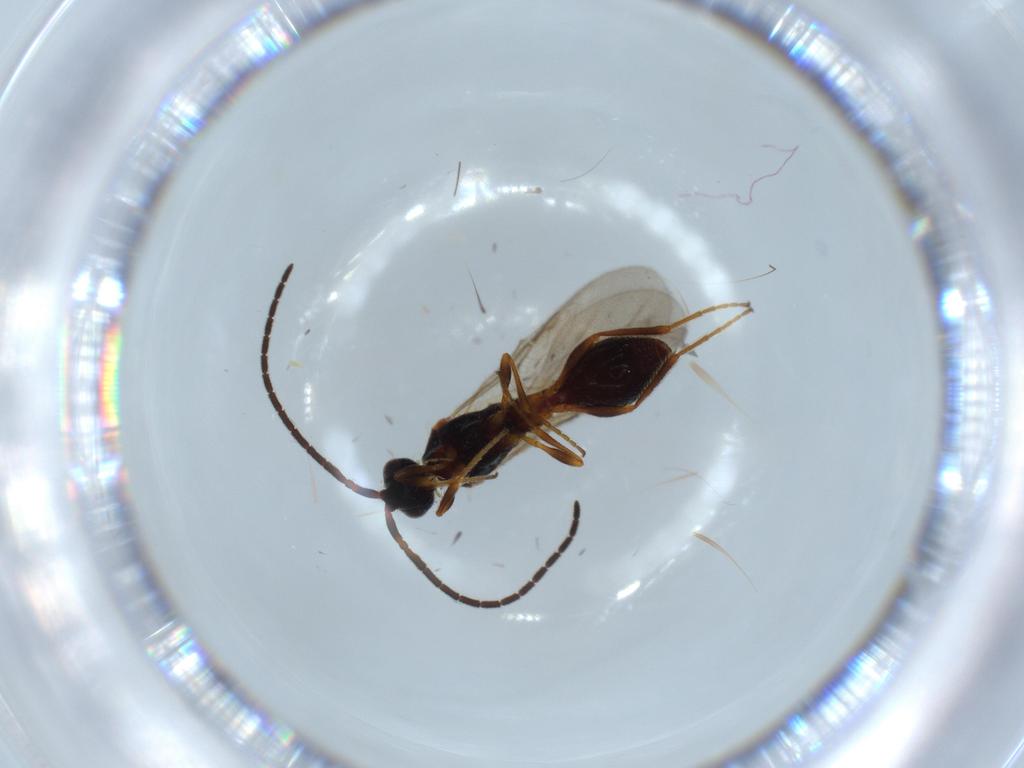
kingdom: Animalia
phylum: Arthropoda
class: Insecta
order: Hymenoptera
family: Diapriidae
